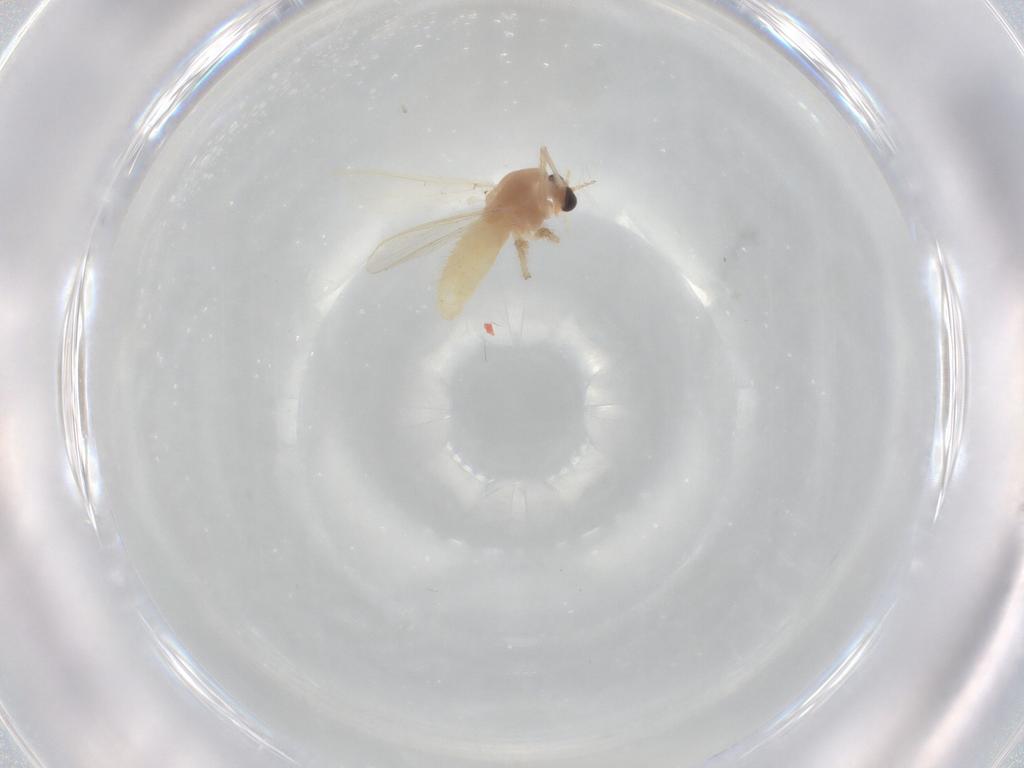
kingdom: Animalia
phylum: Arthropoda
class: Insecta
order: Diptera
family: Chironomidae
